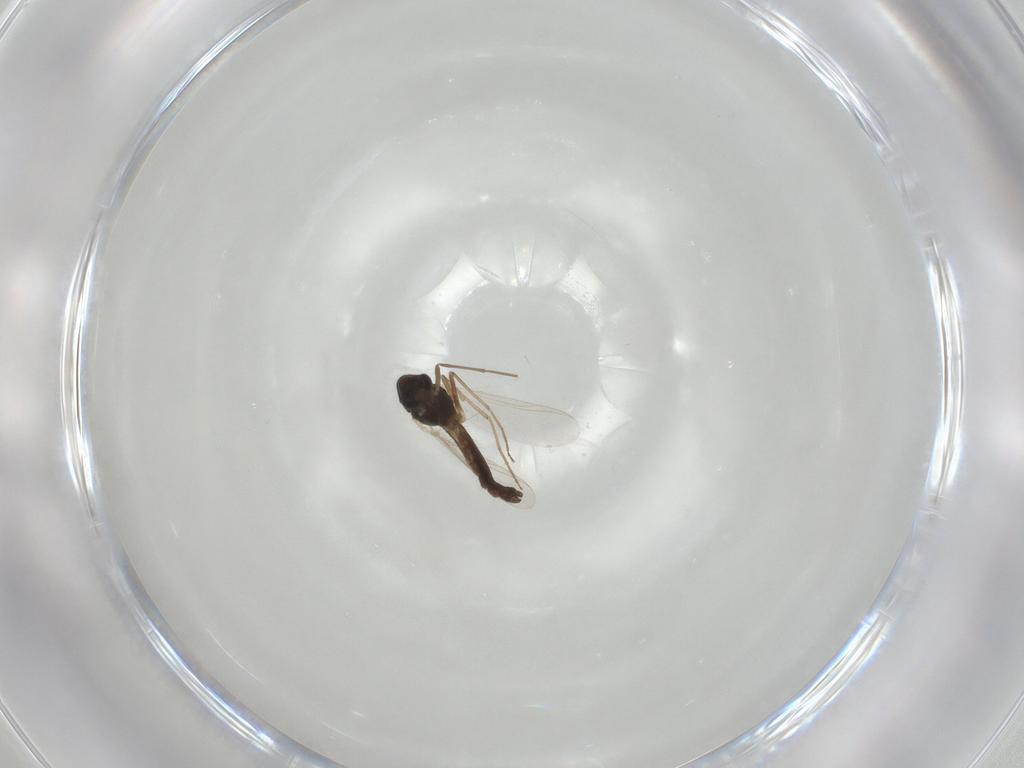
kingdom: Animalia
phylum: Arthropoda
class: Insecta
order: Diptera
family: Chironomidae
